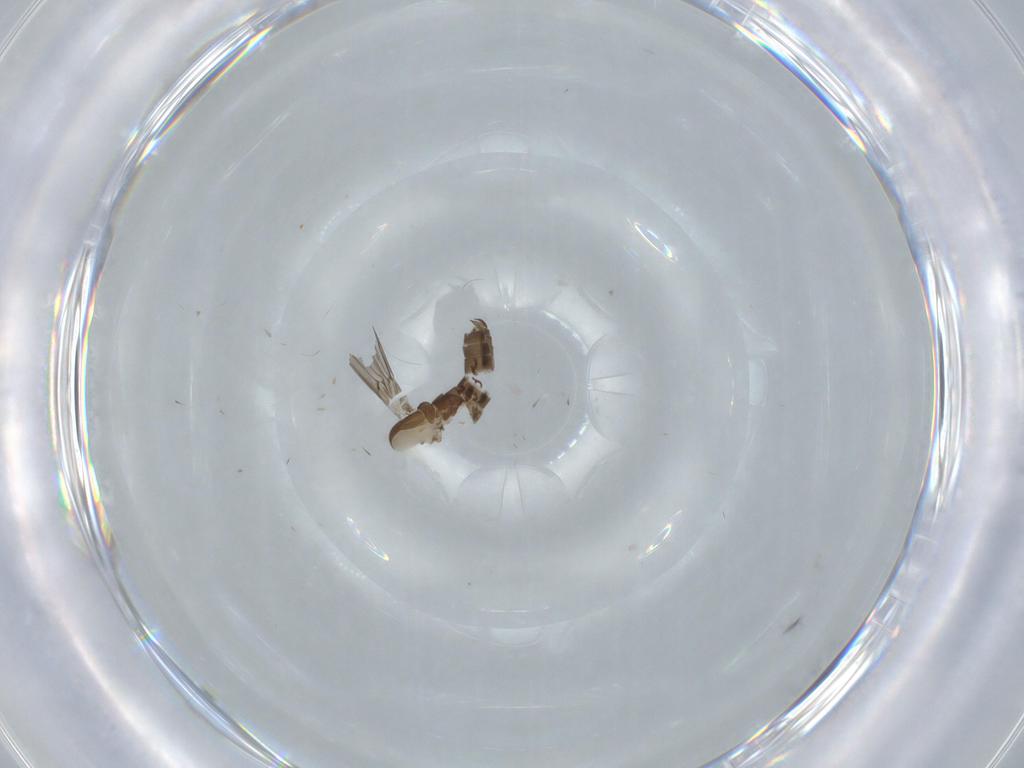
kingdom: Animalia
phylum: Arthropoda
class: Insecta
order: Diptera
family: Psychodidae
